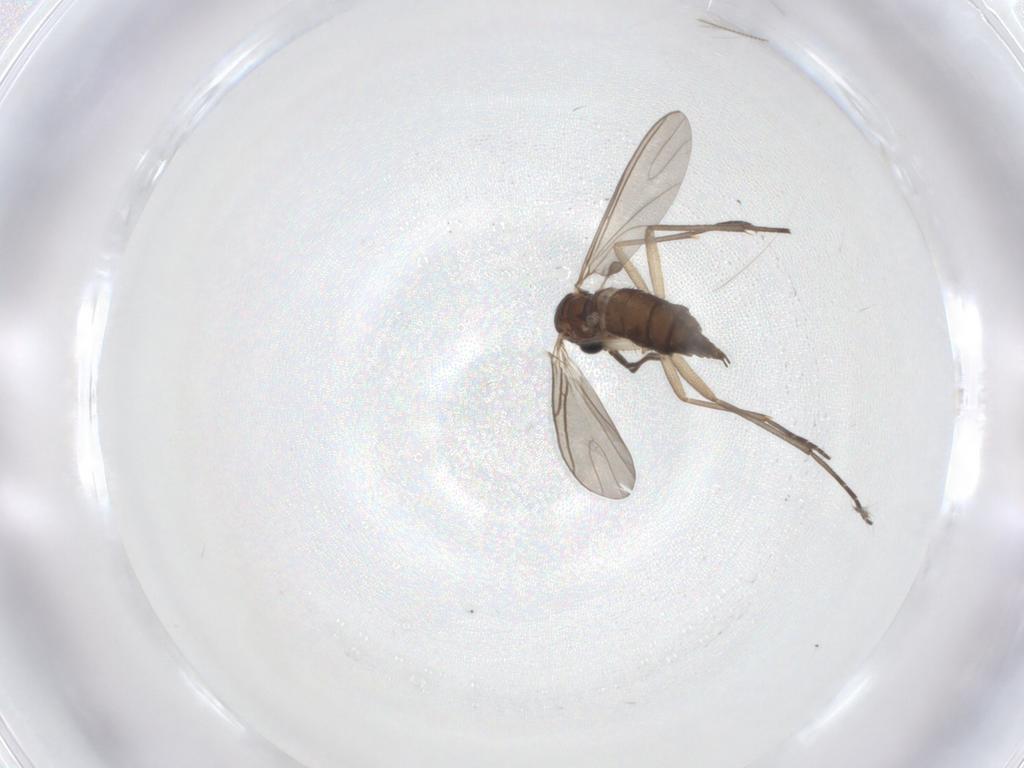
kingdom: Animalia
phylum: Arthropoda
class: Insecta
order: Diptera
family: Sciaridae
